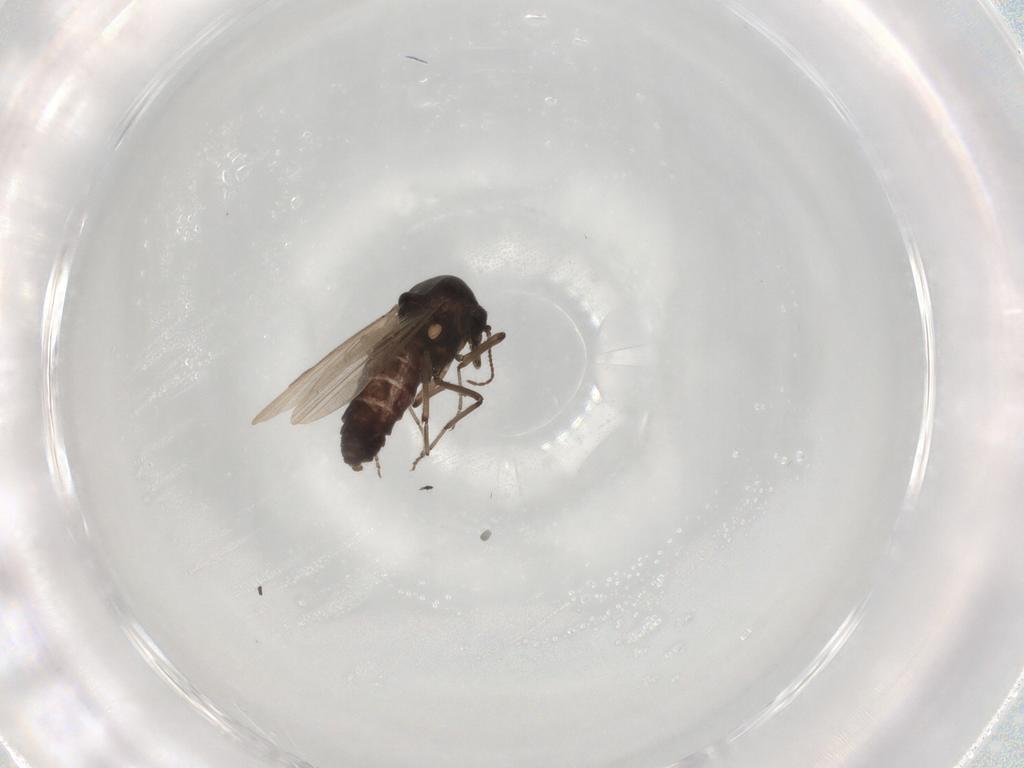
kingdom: Animalia
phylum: Arthropoda
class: Insecta
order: Diptera
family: Ceratopogonidae
